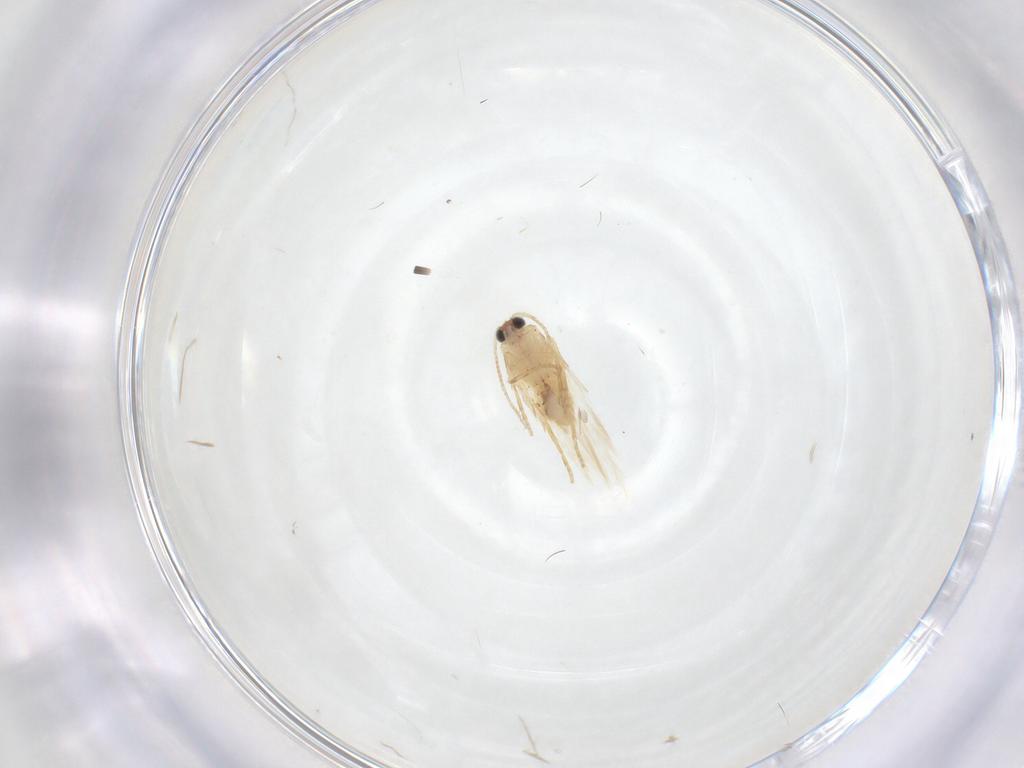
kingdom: Animalia
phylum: Arthropoda
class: Insecta
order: Lepidoptera
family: Nepticulidae
